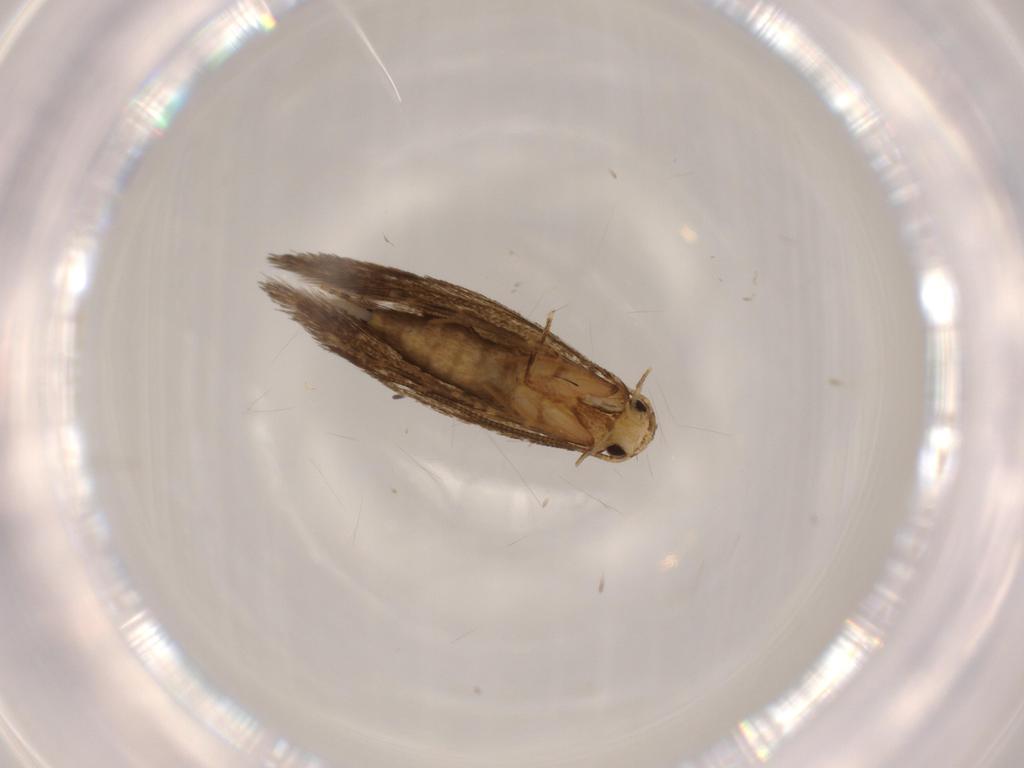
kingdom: Animalia
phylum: Arthropoda
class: Insecta
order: Lepidoptera
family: Tineidae
